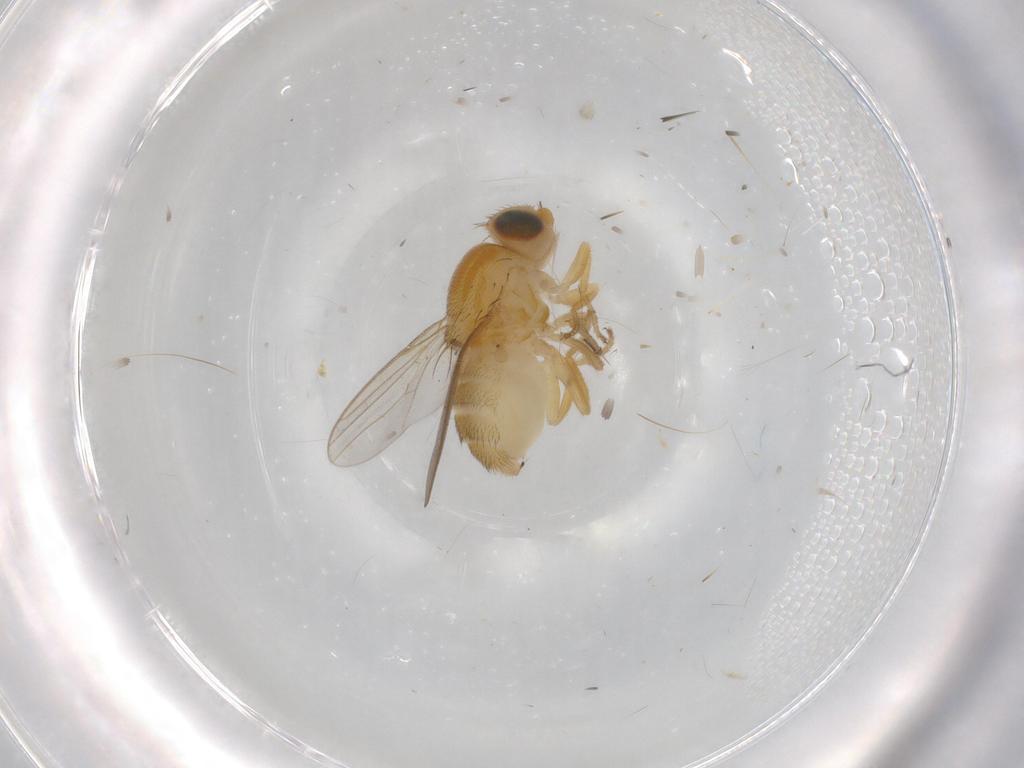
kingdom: Animalia
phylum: Arthropoda
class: Insecta
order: Diptera
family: Chloropidae
